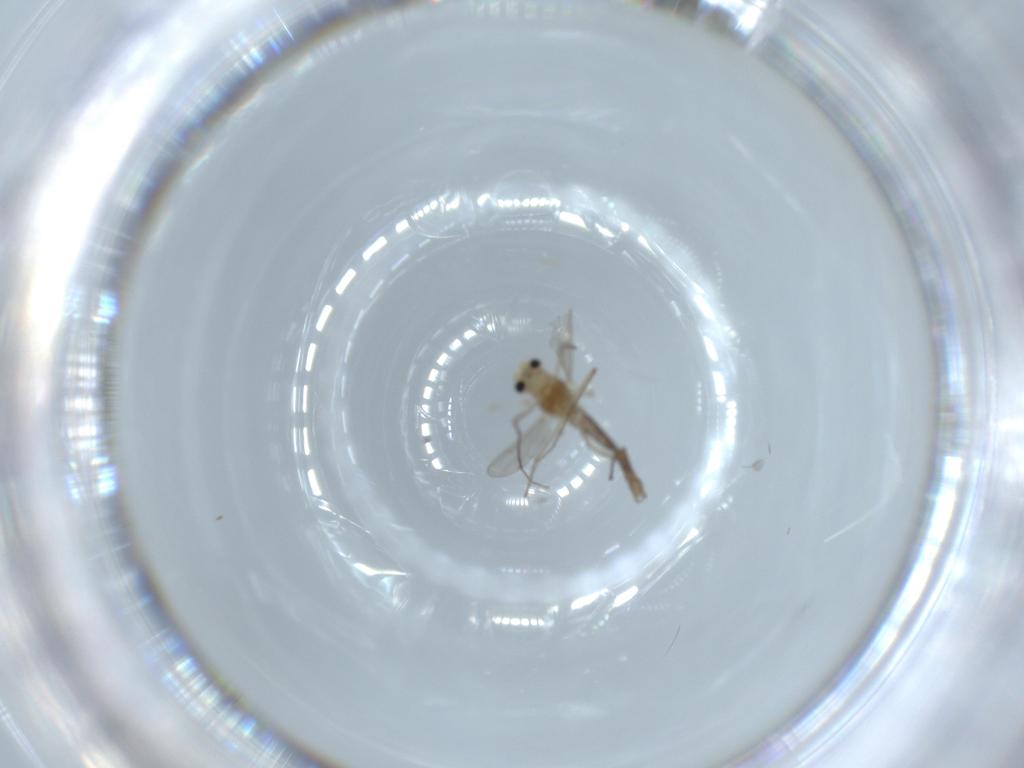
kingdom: Animalia
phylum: Arthropoda
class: Insecta
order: Diptera
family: Chironomidae
